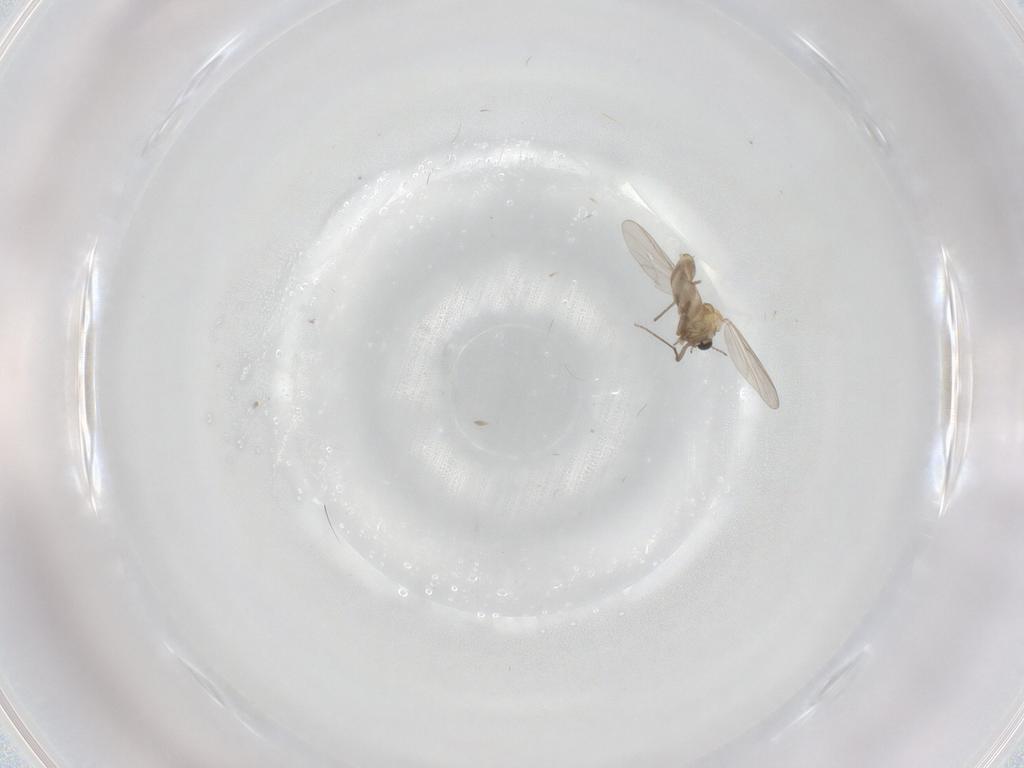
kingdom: Animalia
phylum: Arthropoda
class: Insecta
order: Diptera
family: Chironomidae
